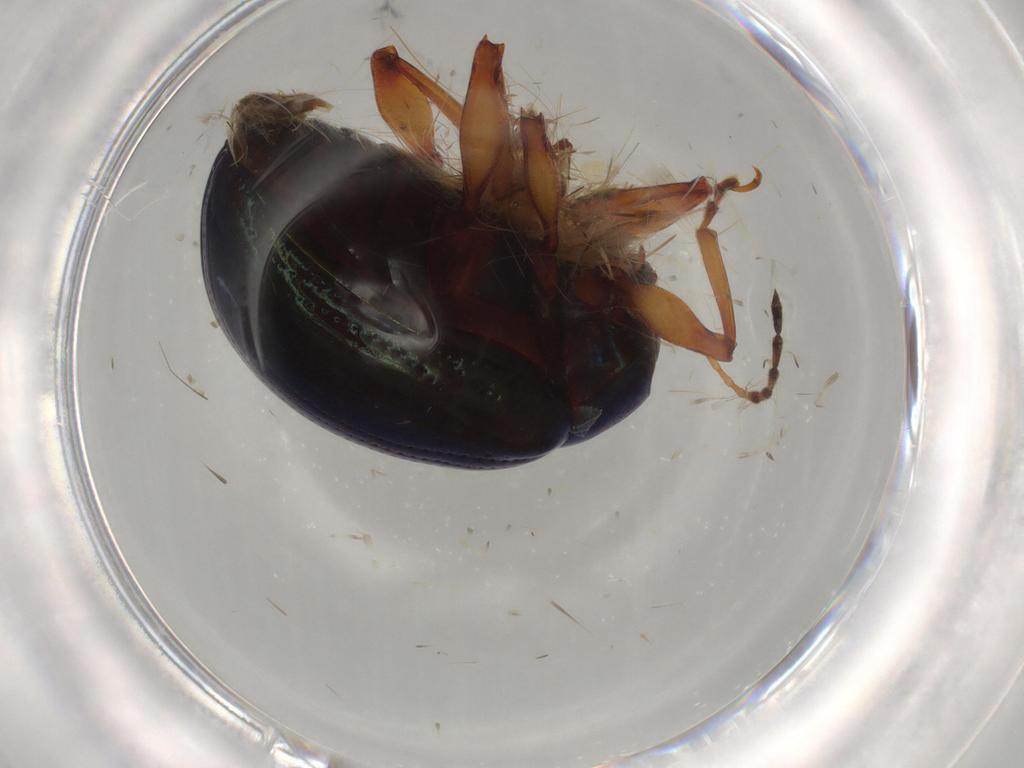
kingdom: Animalia
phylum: Arthropoda
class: Insecta
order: Coleoptera
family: Chrysomelidae
